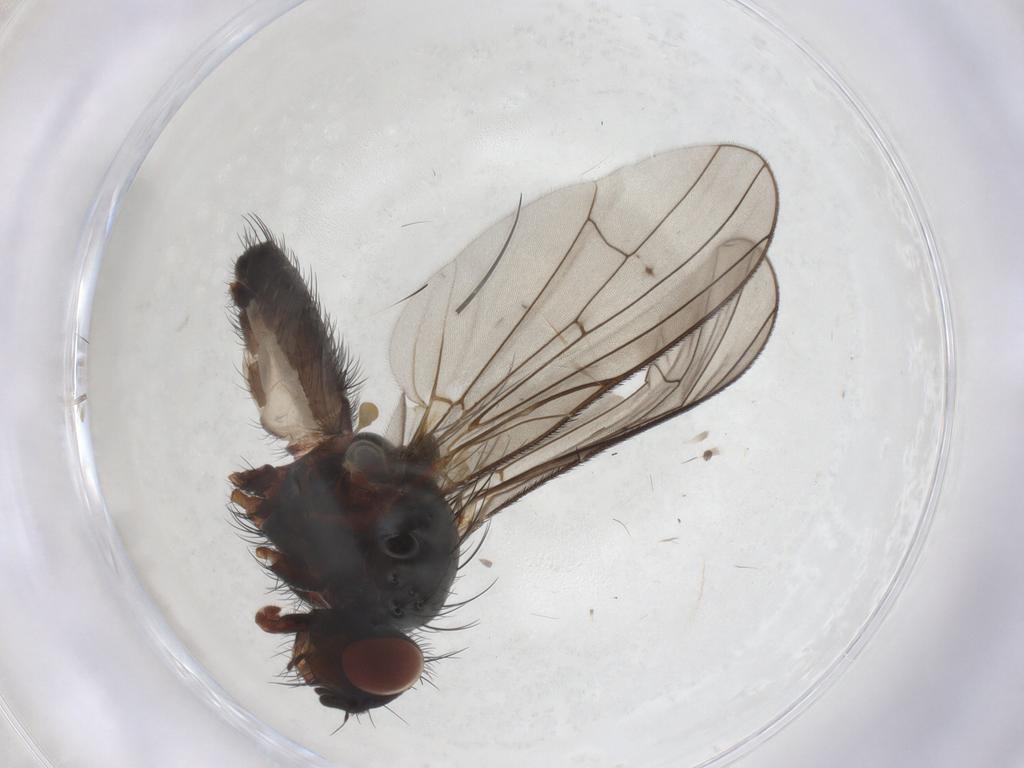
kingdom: Animalia
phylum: Arthropoda
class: Insecta
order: Diptera
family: Anthomyiidae
